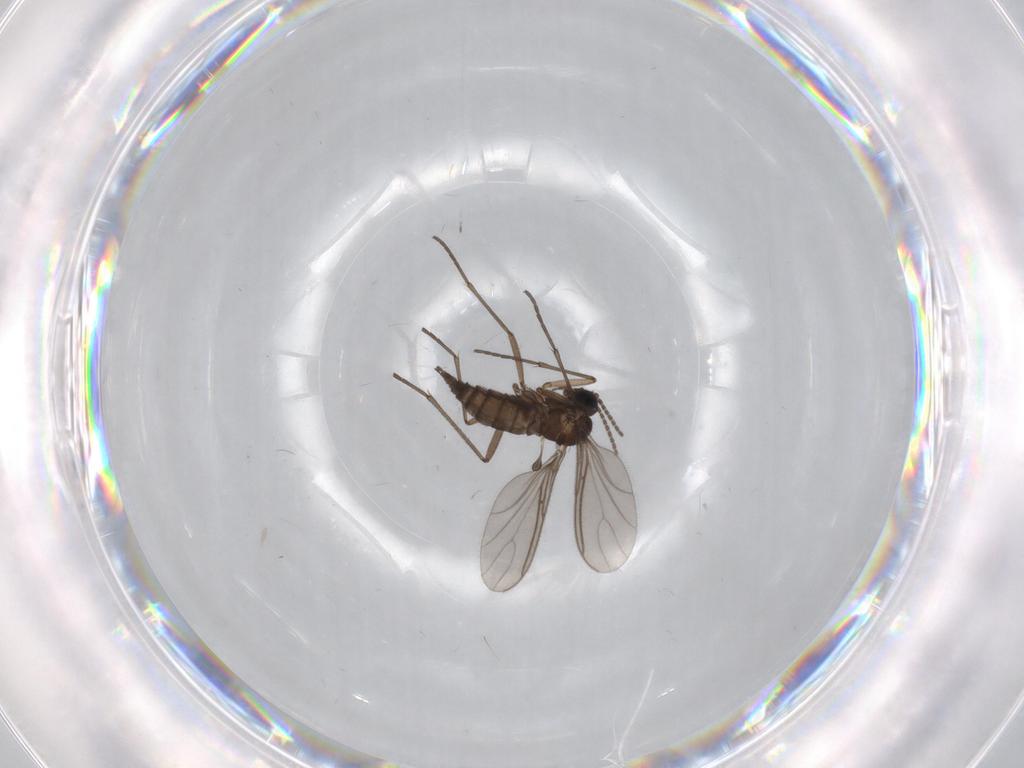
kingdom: Animalia
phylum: Arthropoda
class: Insecta
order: Diptera
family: Sciaridae
